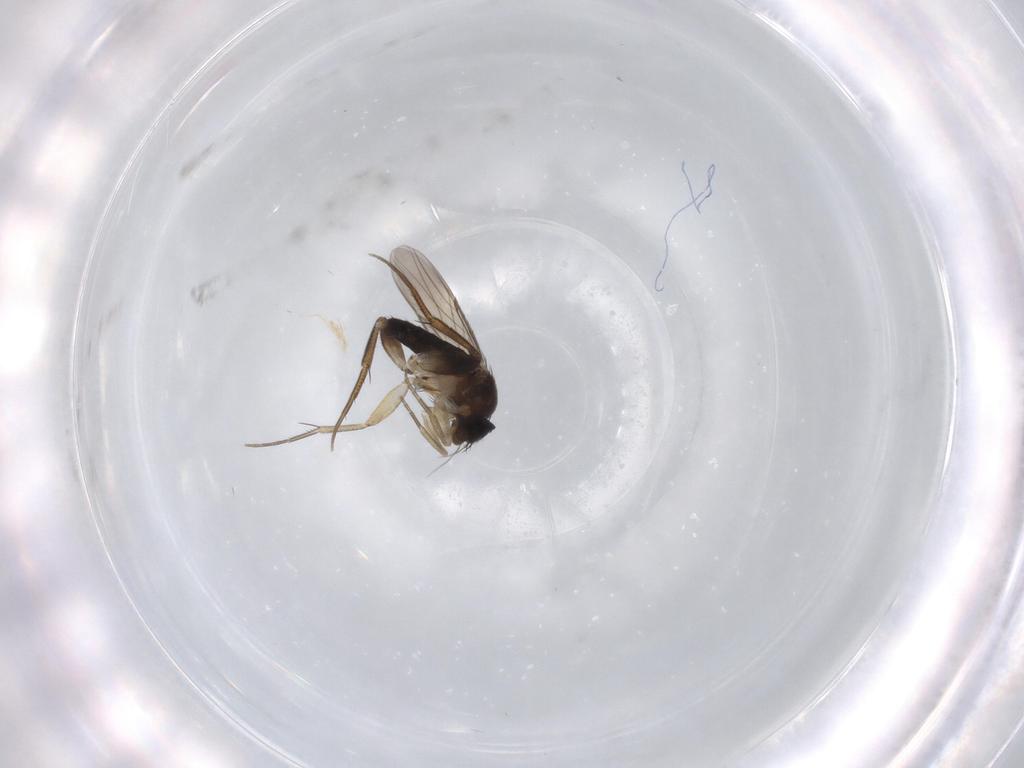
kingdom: Animalia
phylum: Arthropoda
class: Insecta
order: Diptera
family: Phoridae
